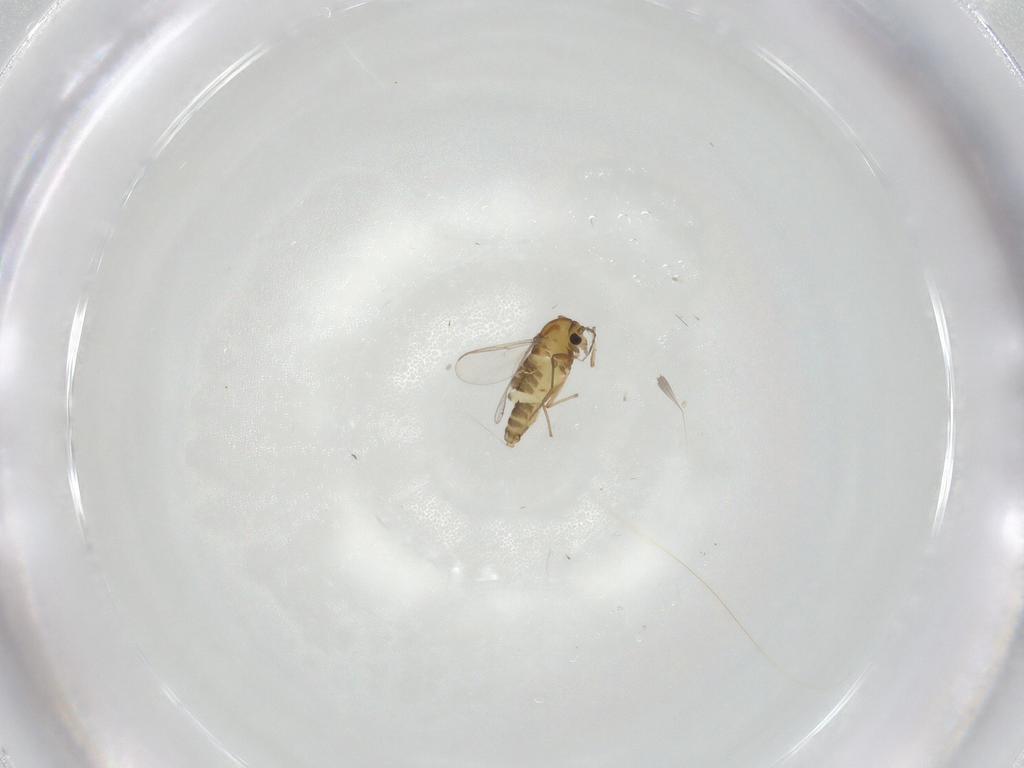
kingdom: Animalia
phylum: Arthropoda
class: Insecta
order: Diptera
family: Chironomidae
